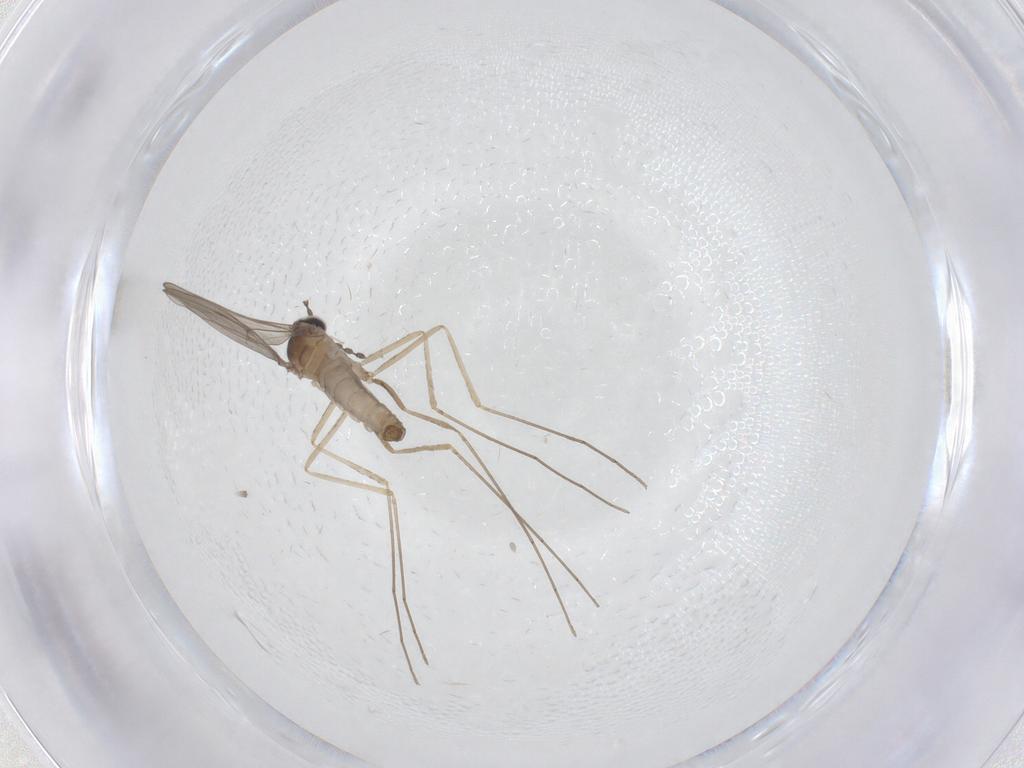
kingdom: Animalia
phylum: Arthropoda
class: Insecta
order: Diptera
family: Cecidomyiidae
